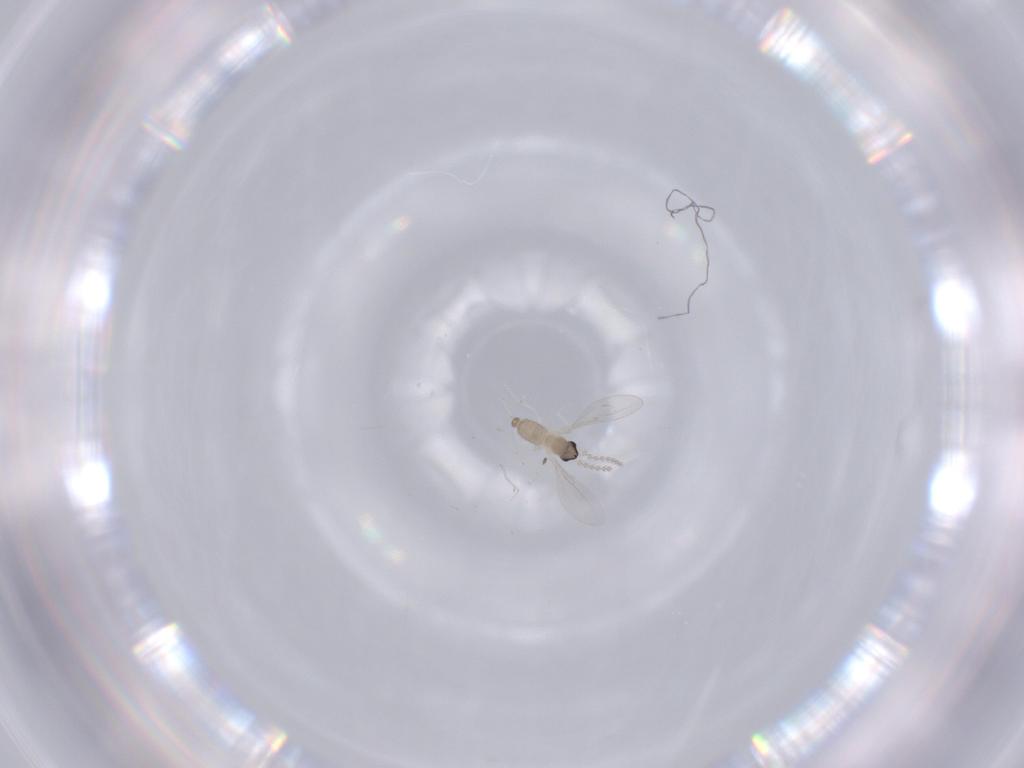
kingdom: Animalia
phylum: Arthropoda
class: Insecta
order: Diptera
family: Cecidomyiidae
